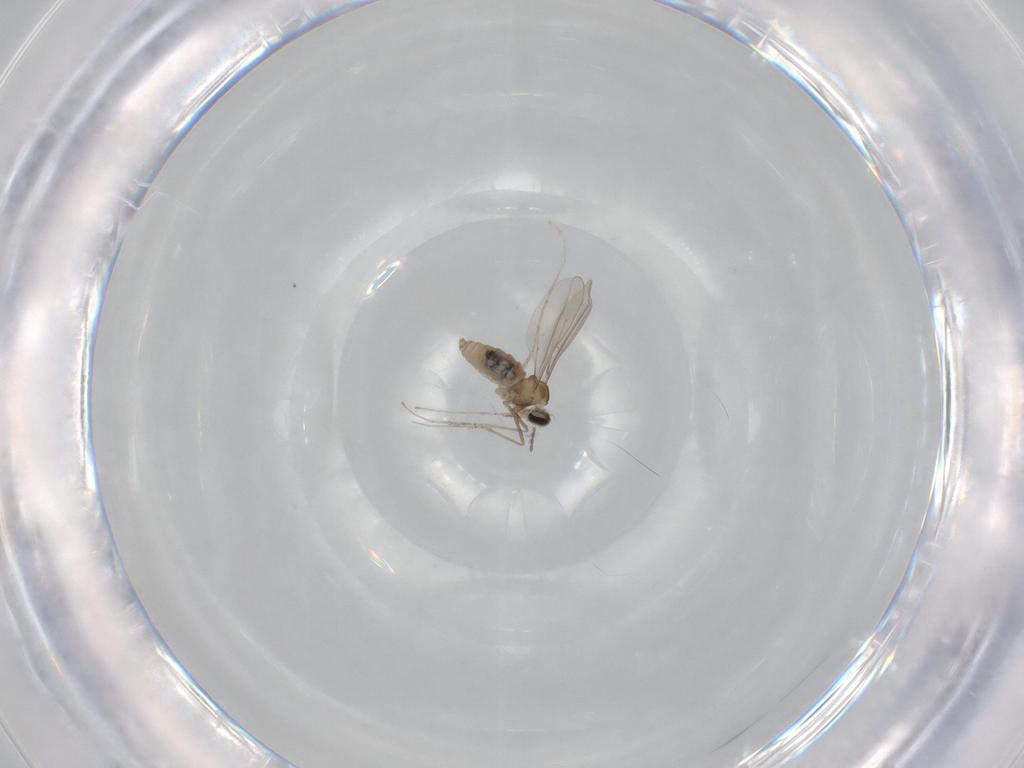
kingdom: Animalia
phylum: Arthropoda
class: Insecta
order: Diptera
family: Cecidomyiidae
